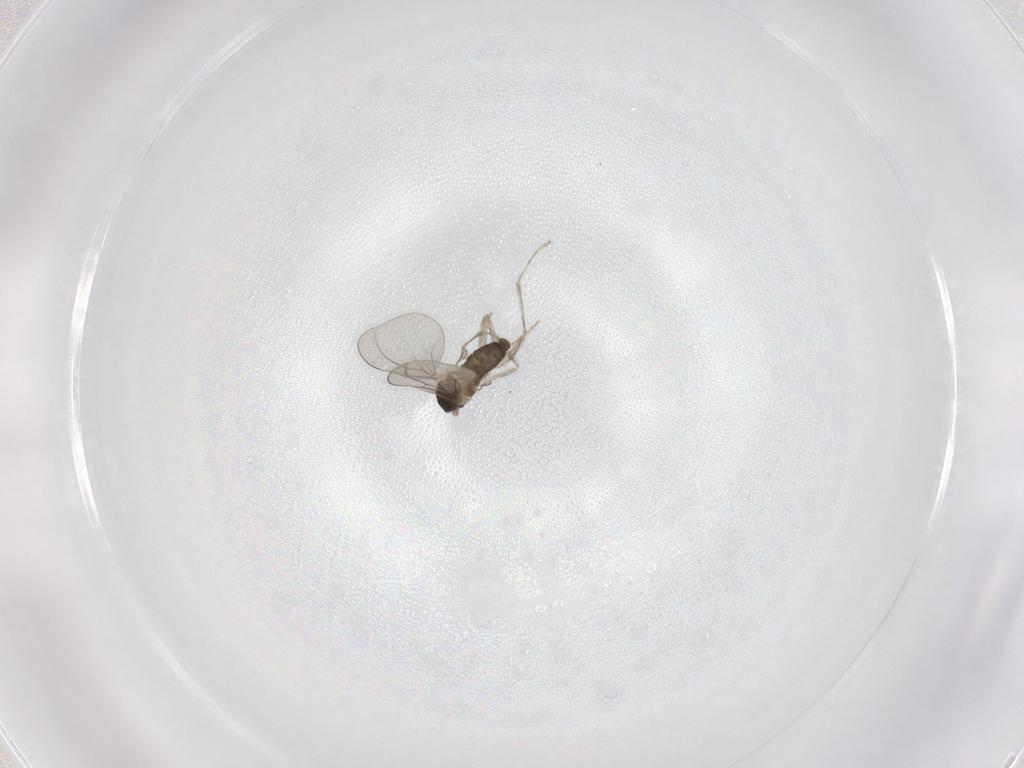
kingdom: Animalia
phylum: Arthropoda
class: Insecta
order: Diptera
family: Cecidomyiidae
